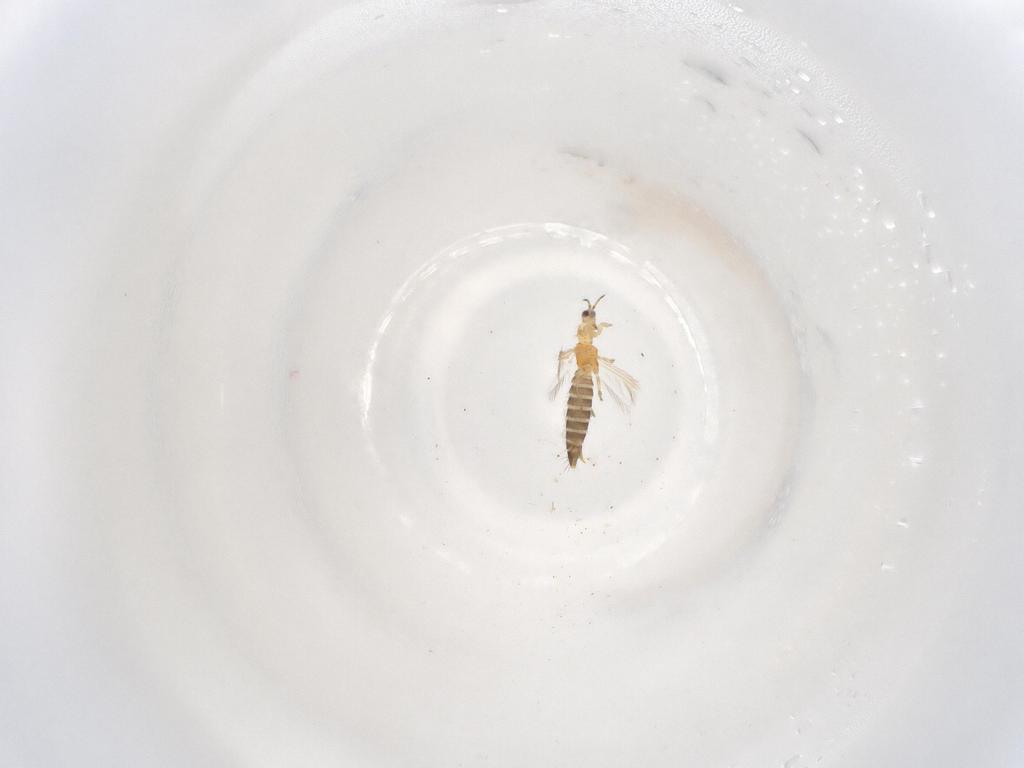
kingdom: Animalia
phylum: Arthropoda
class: Insecta
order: Thysanoptera
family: Thripidae
